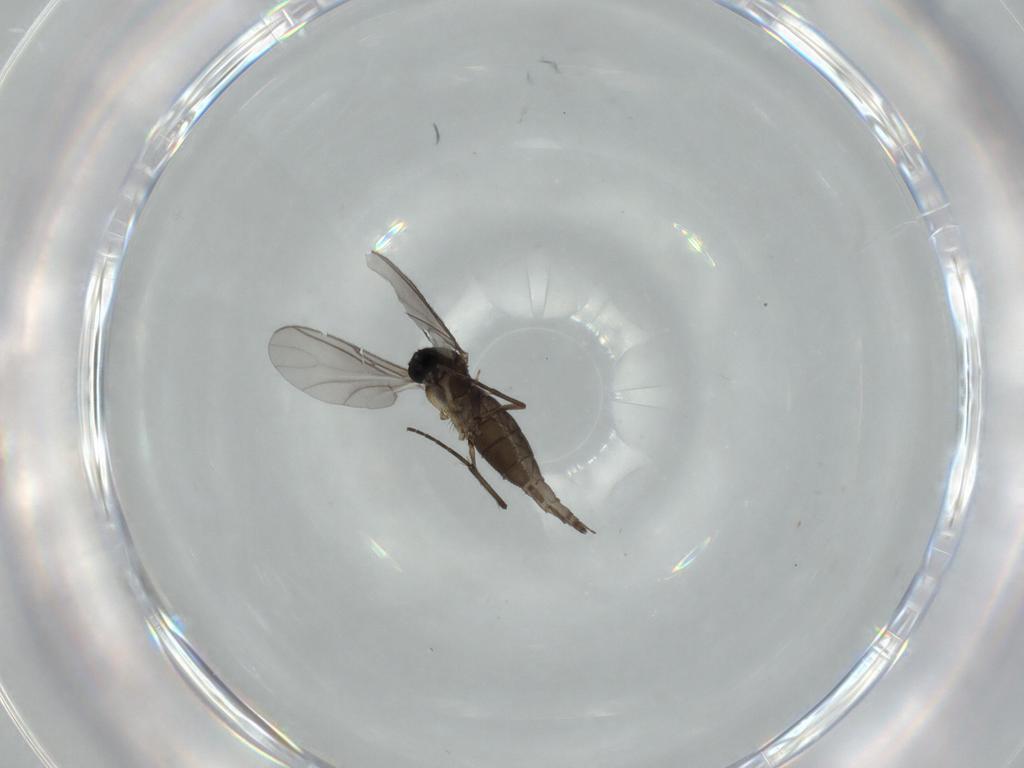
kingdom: Animalia
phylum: Arthropoda
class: Insecta
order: Diptera
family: Sciaridae
